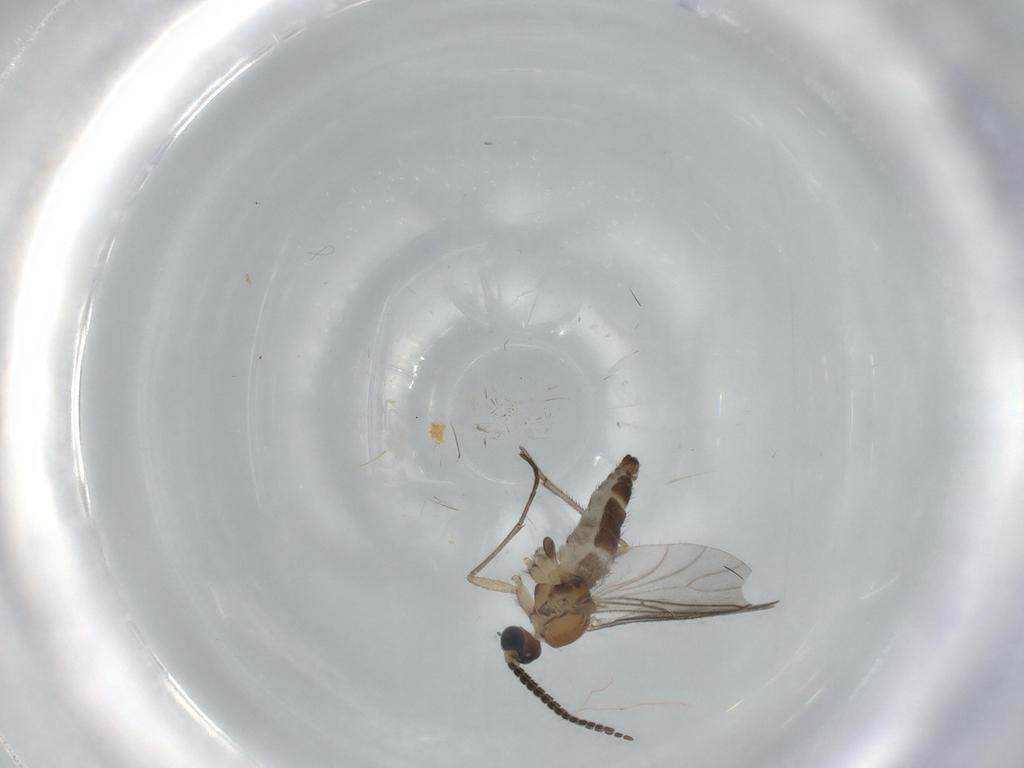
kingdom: Animalia
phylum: Arthropoda
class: Insecta
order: Diptera
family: Sciaridae
